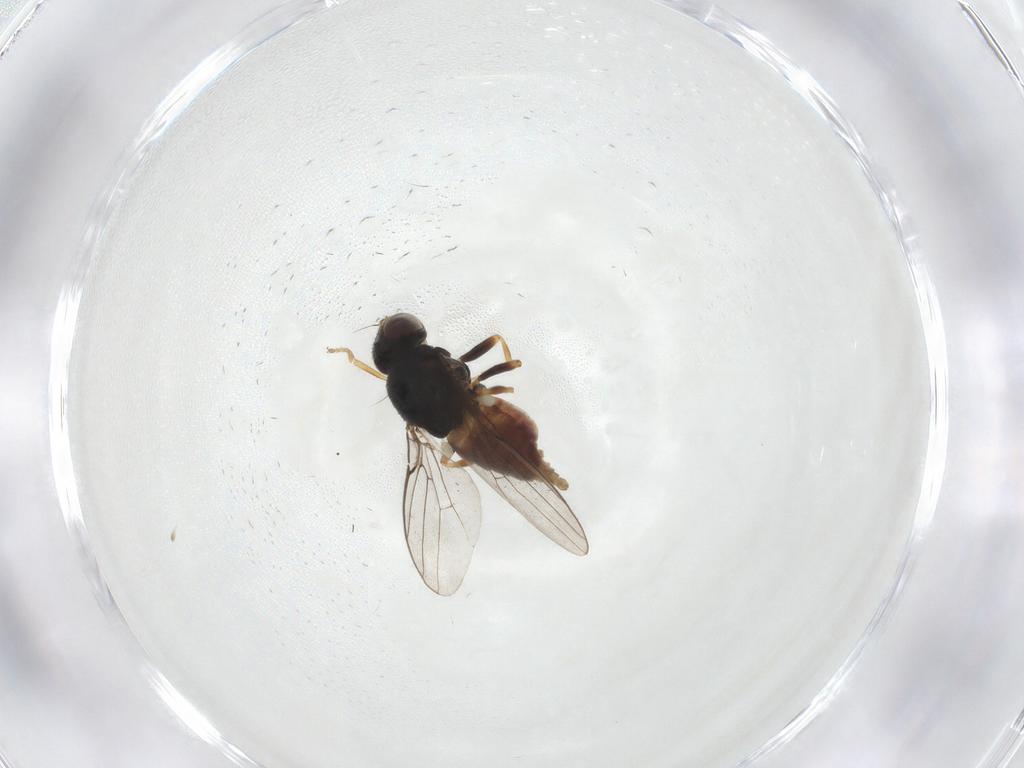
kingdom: Animalia
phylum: Arthropoda
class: Insecta
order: Diptera
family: Chloropidae
